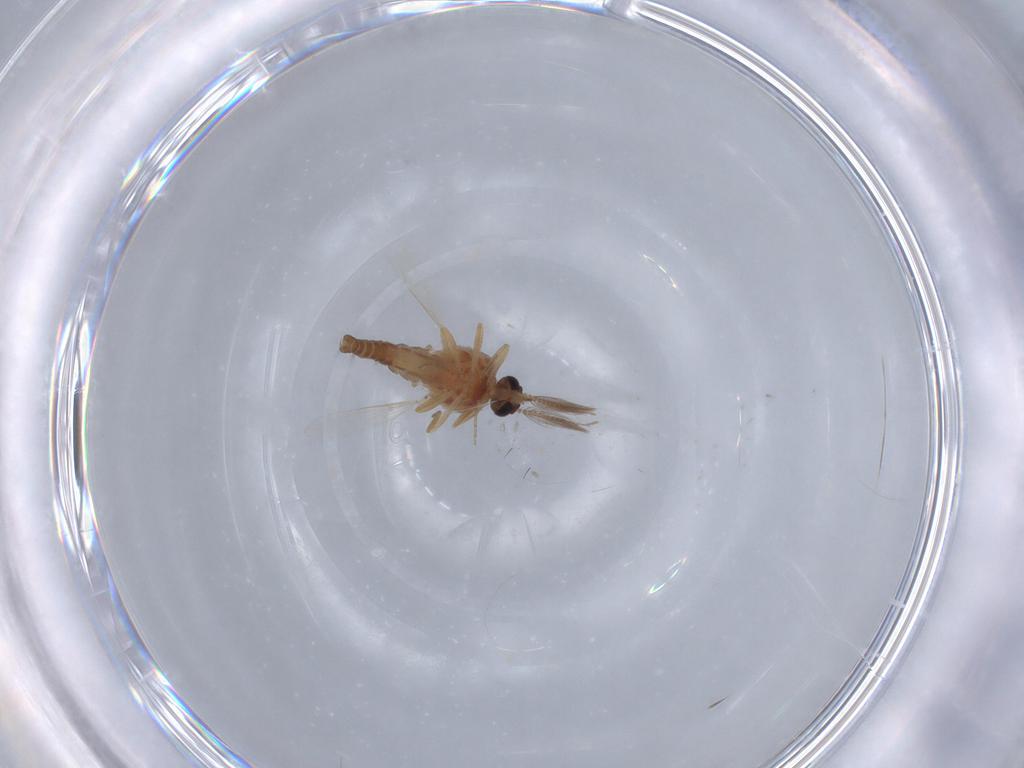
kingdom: Animalia
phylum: Arthropoda
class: Insecta
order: Diptera
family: Ceratopogonidae
